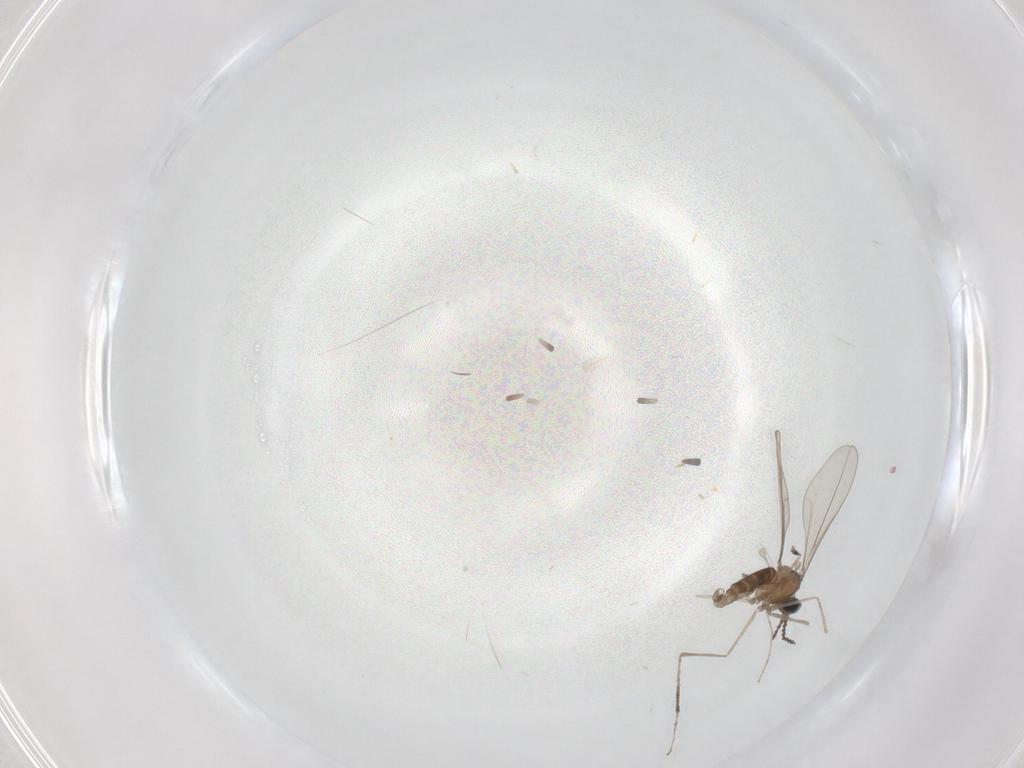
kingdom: Animalia
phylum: Arthropoda
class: Insecta
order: Diptera
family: Cecidomyiidae
